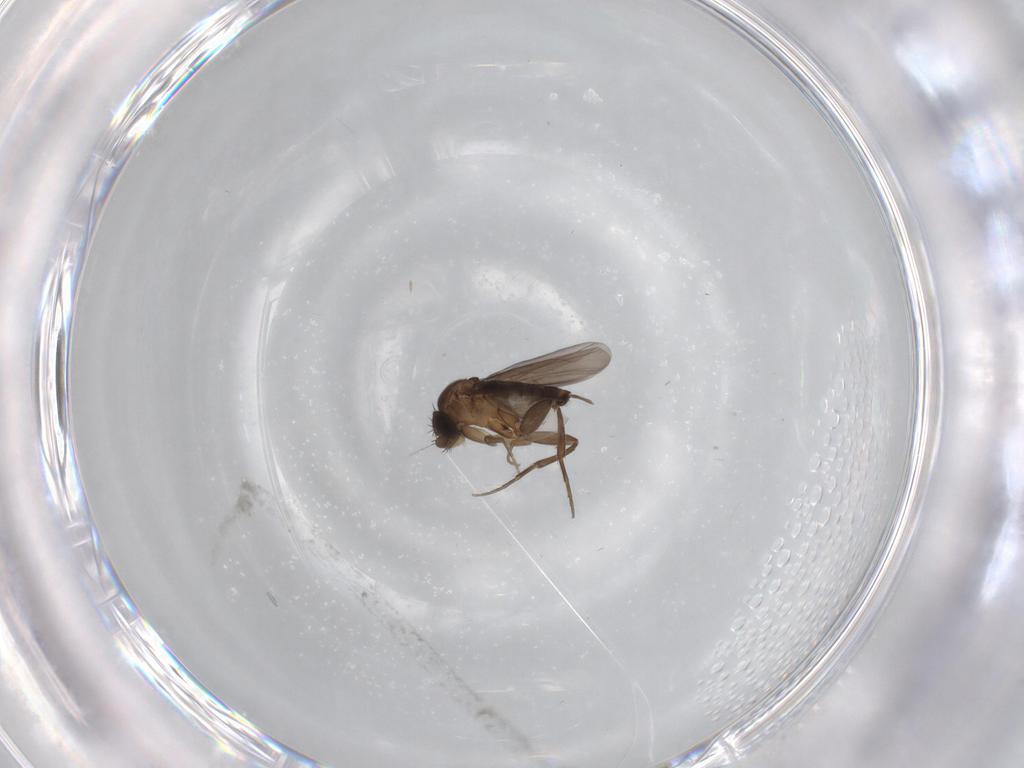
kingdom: Animalia
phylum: Arthropoda
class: Insecta
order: Diptera
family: Phoridae
